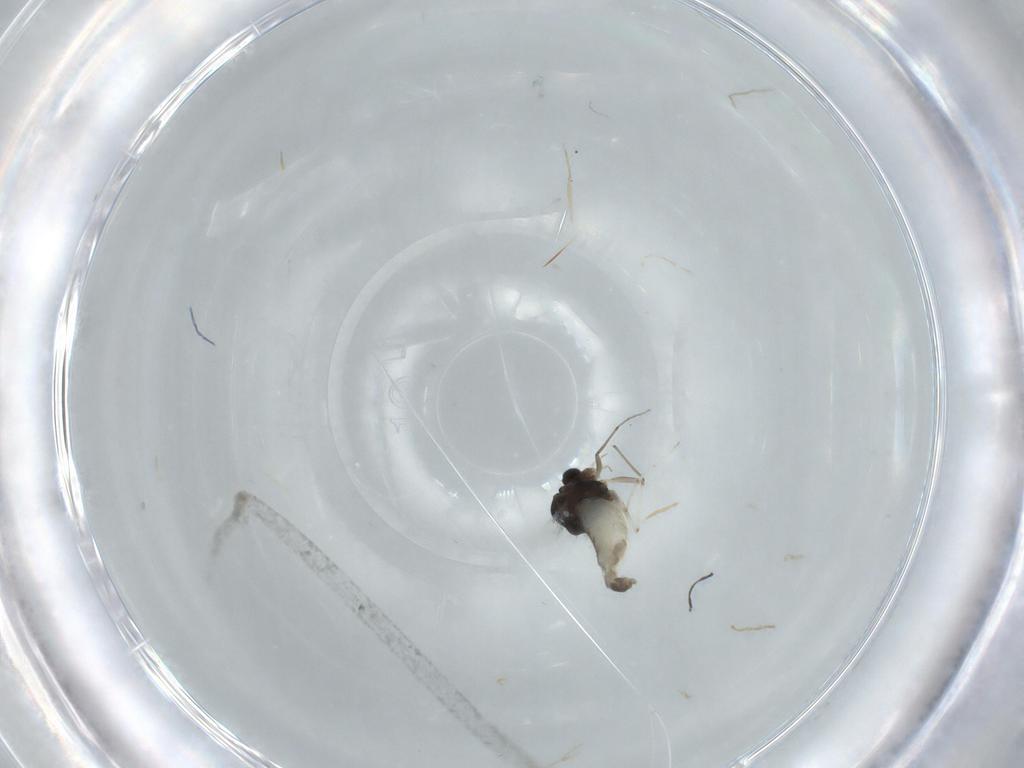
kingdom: Animalia
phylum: Arthropoda
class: Insecta
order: Diptera
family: Chironomidae
